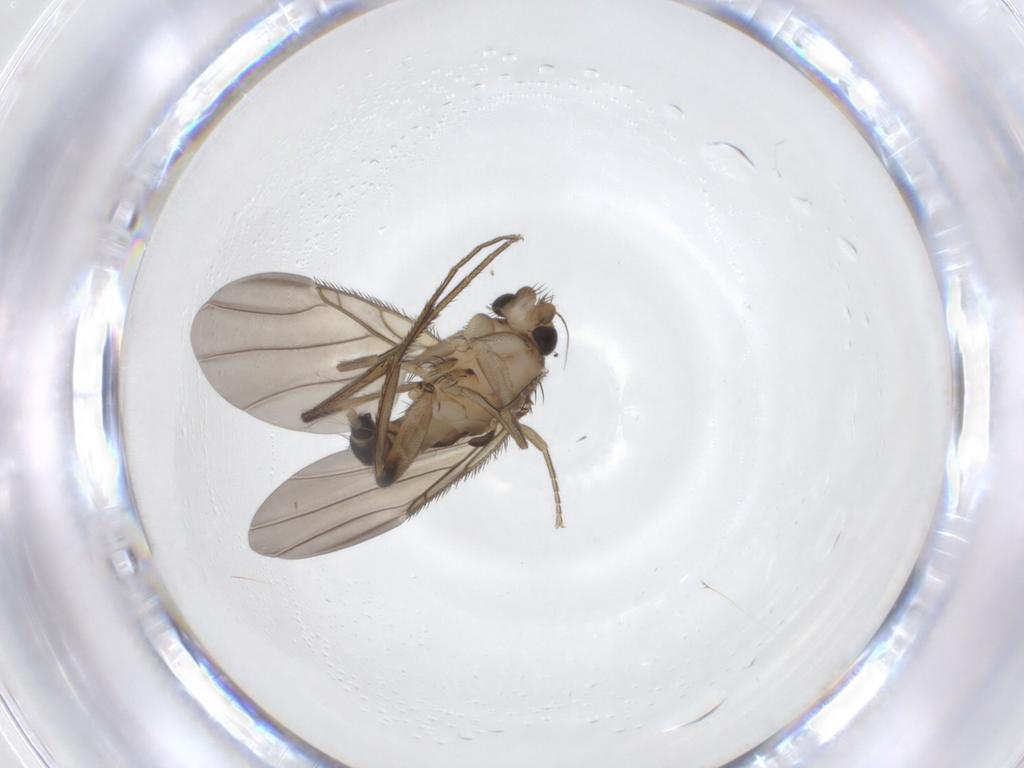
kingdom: Animalia
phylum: Arthropoda
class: Insecta
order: Diptera
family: Phoridae
